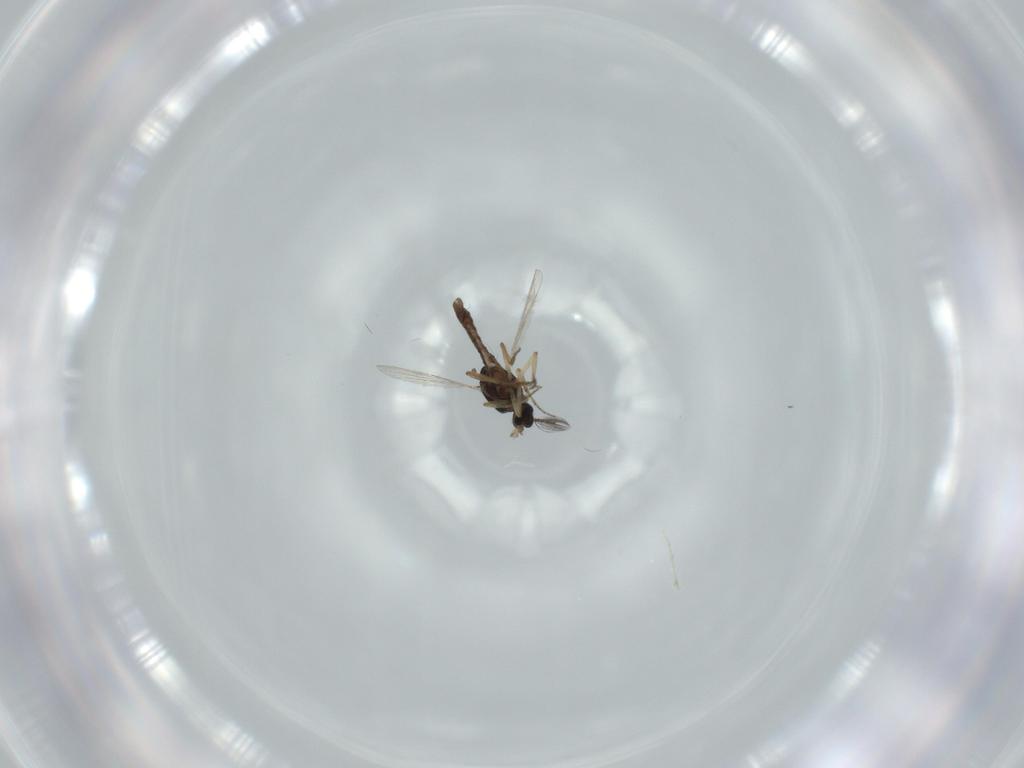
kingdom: Animalia
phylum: Arthropoda
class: Insecta
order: Diptera
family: Ceratopogonidae
